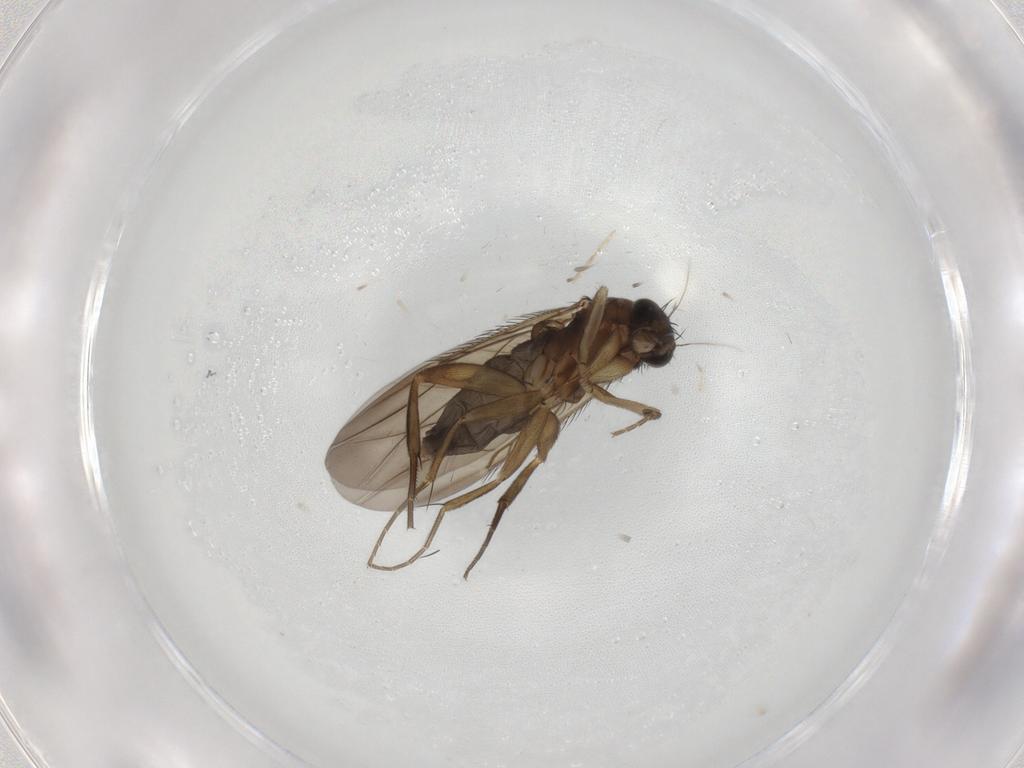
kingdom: Animalia
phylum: Arthropoda
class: Insecta
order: Diptera
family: Phoridae
